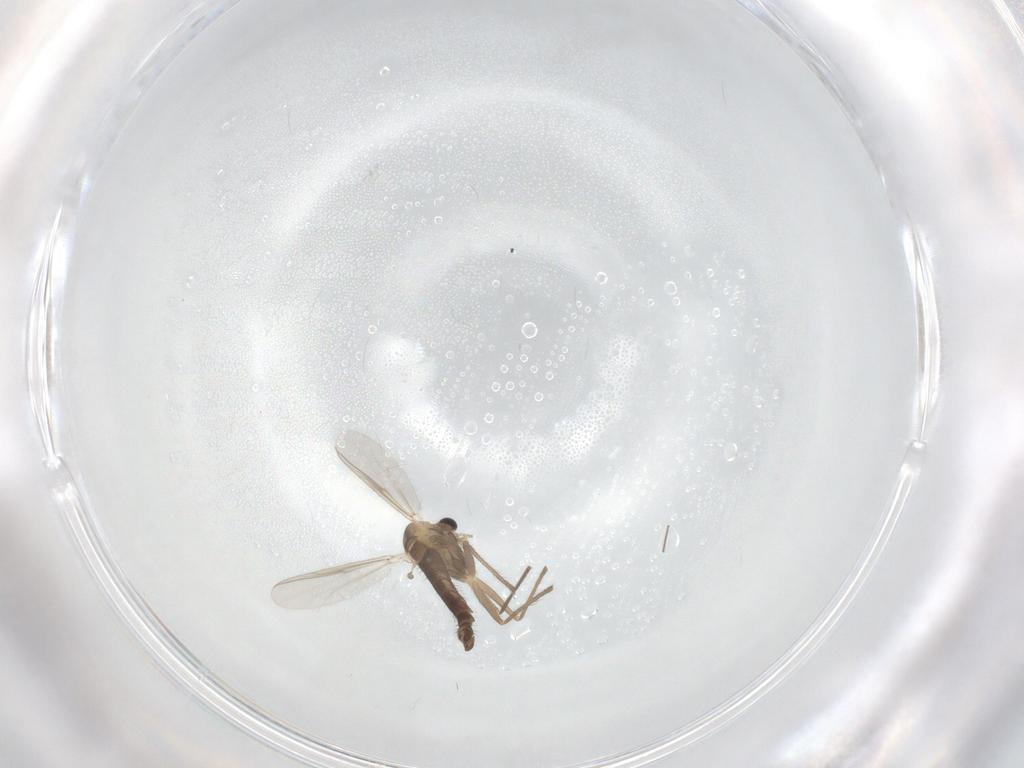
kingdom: Animalia
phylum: Arthropoda
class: Insecta
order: Diptera
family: Chironomidae
